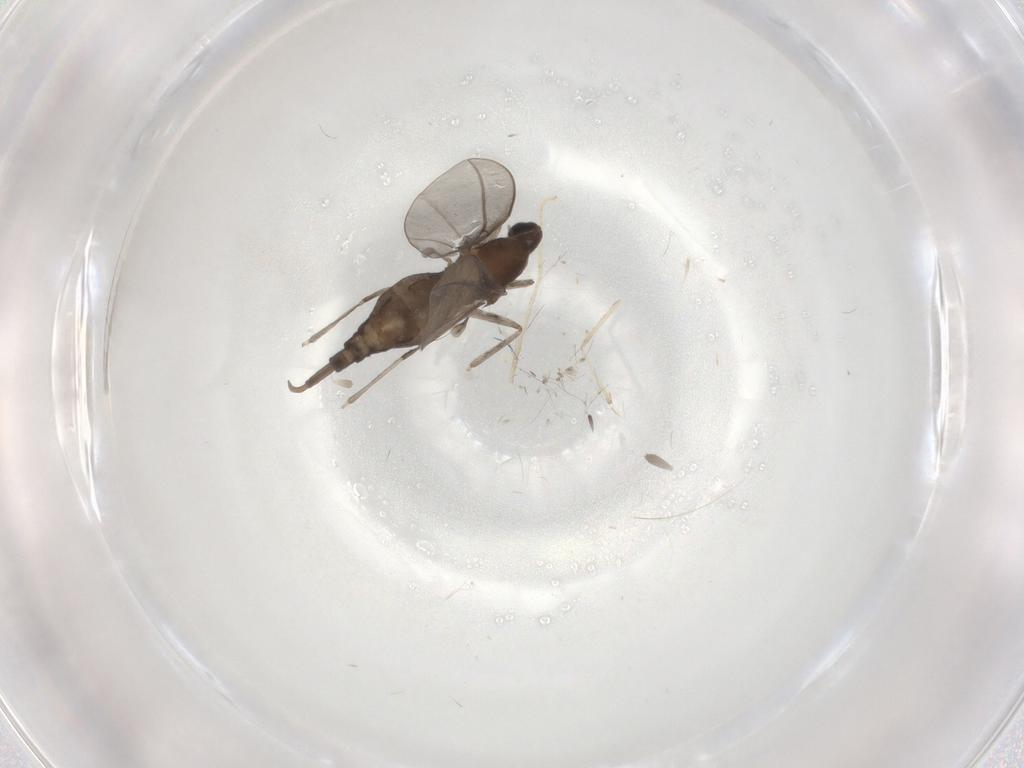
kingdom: Animalia
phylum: Arthropoda
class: Insecta
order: Diptera
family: Cecidomyiidae
